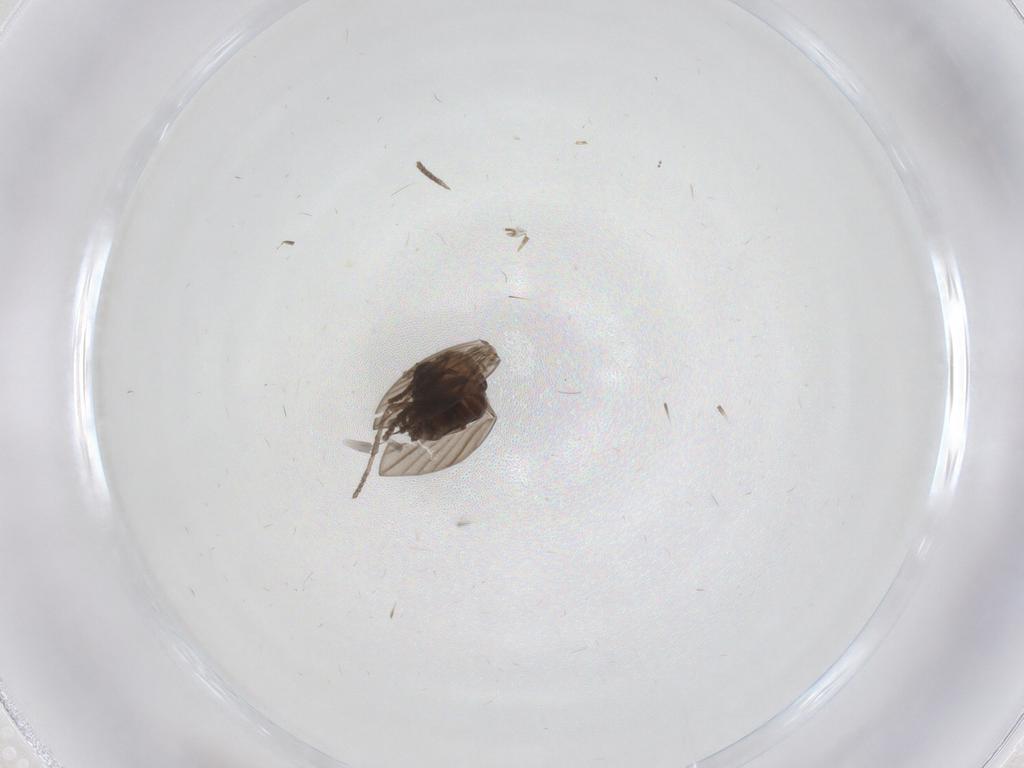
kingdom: Animalia
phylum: Arthropoda
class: Insecta
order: Diptera
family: Psychodidae
